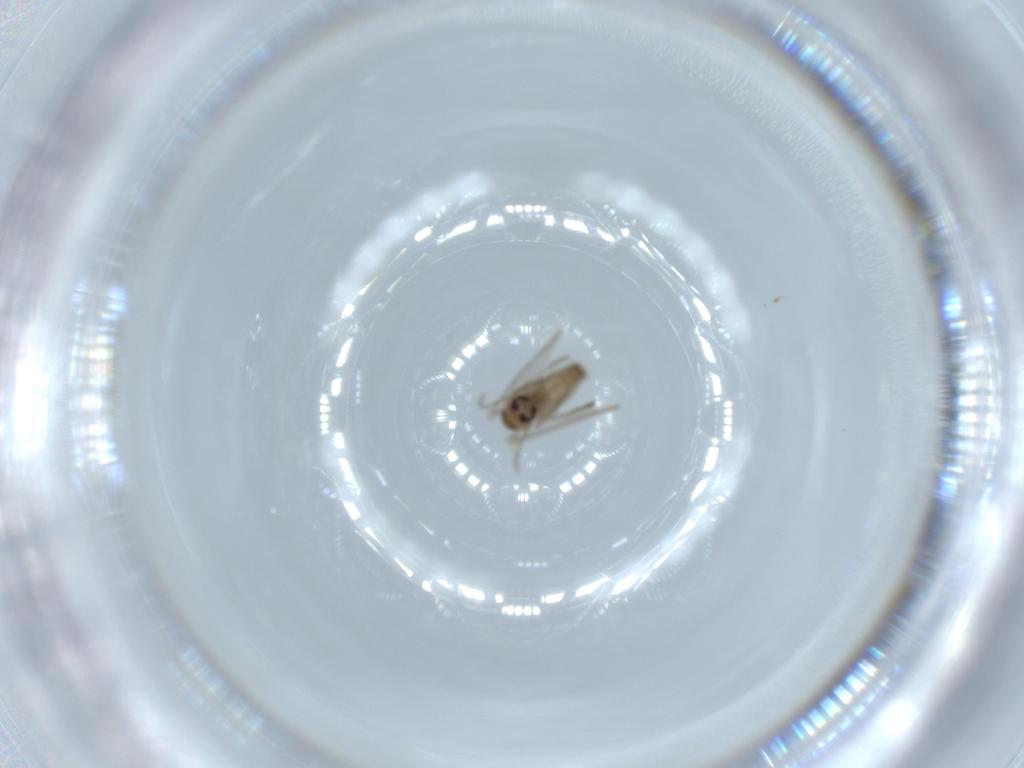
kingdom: Animalia
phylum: Arthropoda
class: Insecta
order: Diptera
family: Psychodidae
